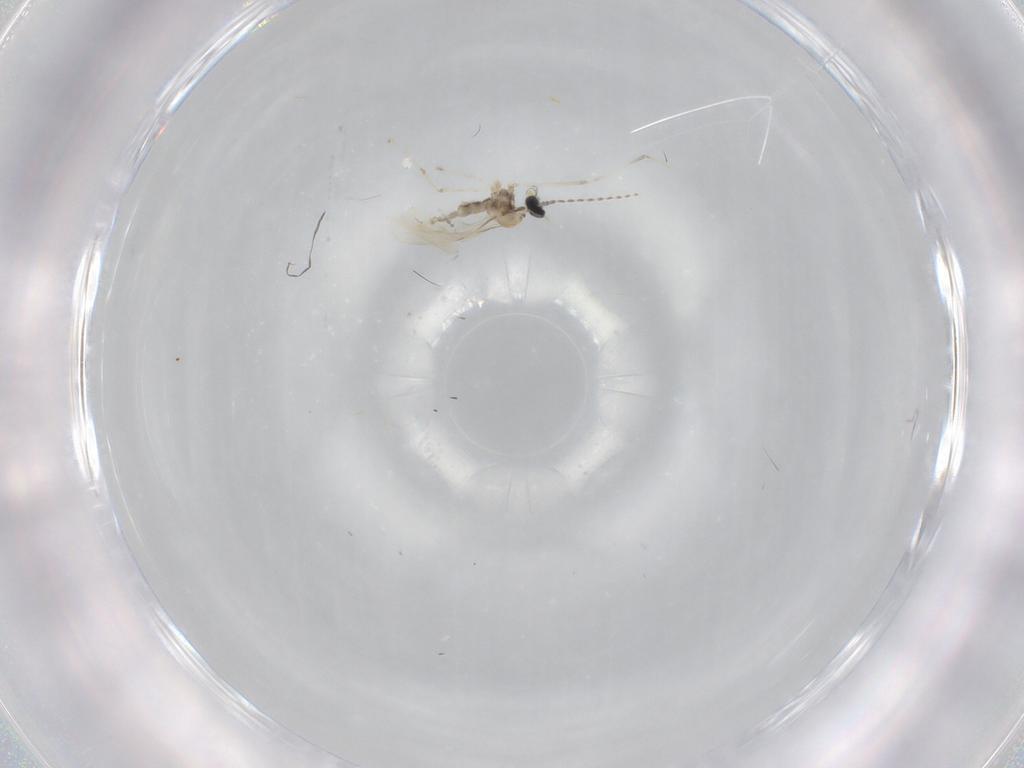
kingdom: Animalia
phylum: Arthropoda
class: Insecta
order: Diptera
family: Cecidomyiidae
